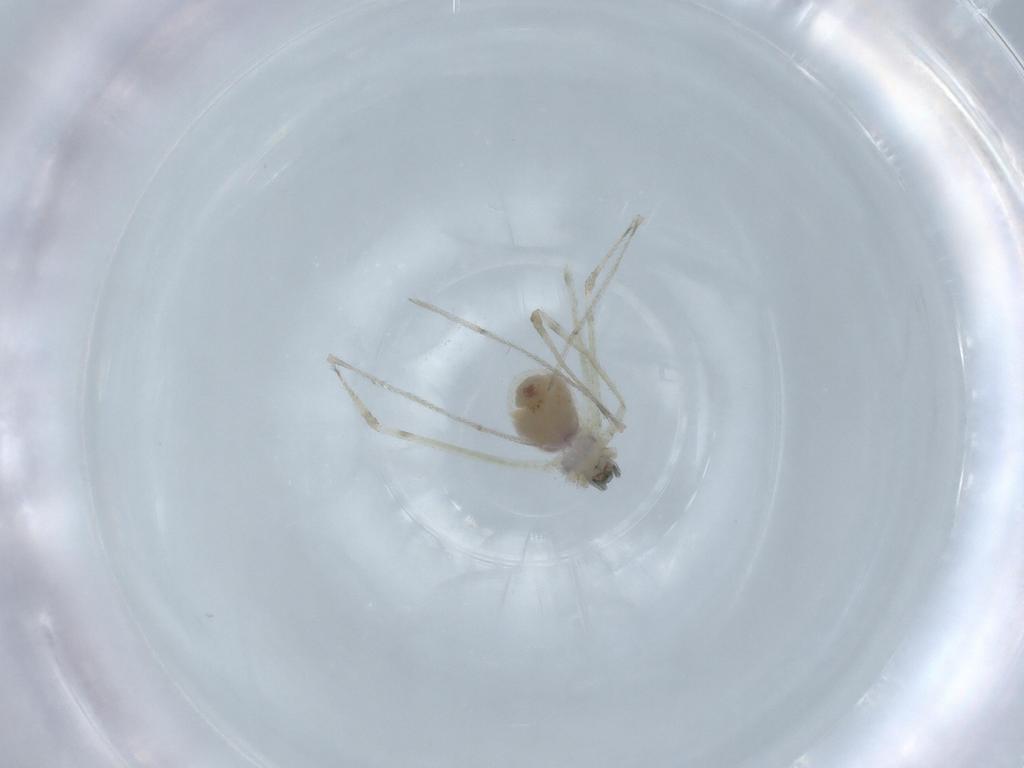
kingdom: Animalia
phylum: Arthropoda
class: Arachnida
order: Araneae
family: Pholcidae
